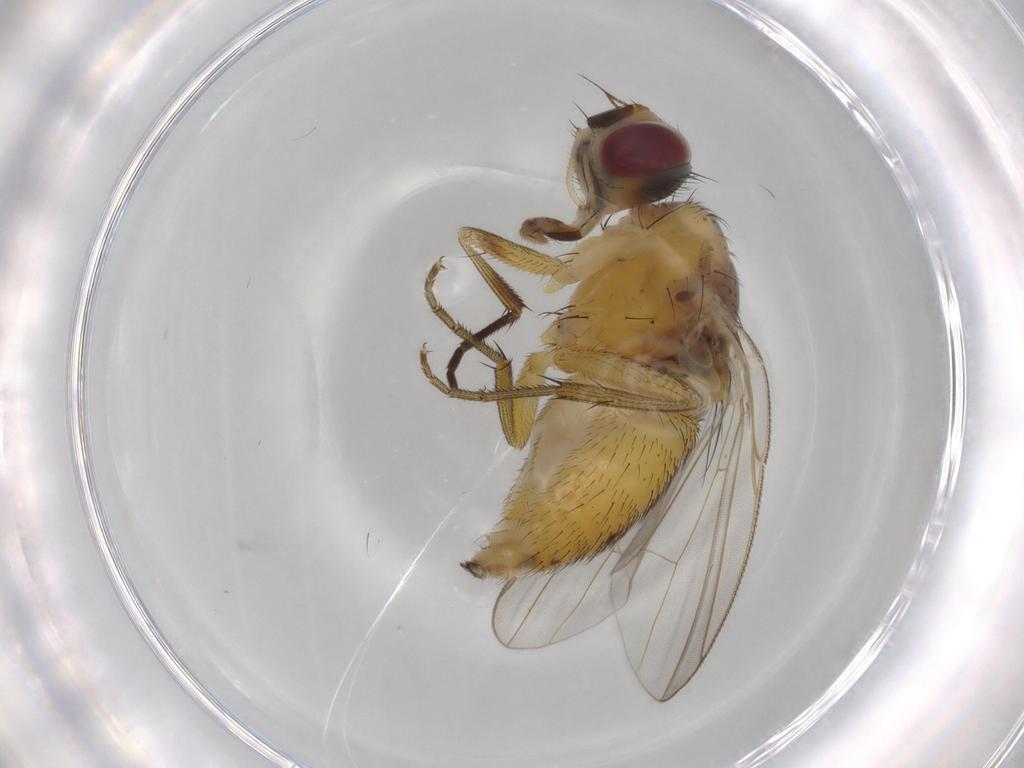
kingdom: Animalia
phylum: Arthropoda
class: Insecta
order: Diptera
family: Muscidae
